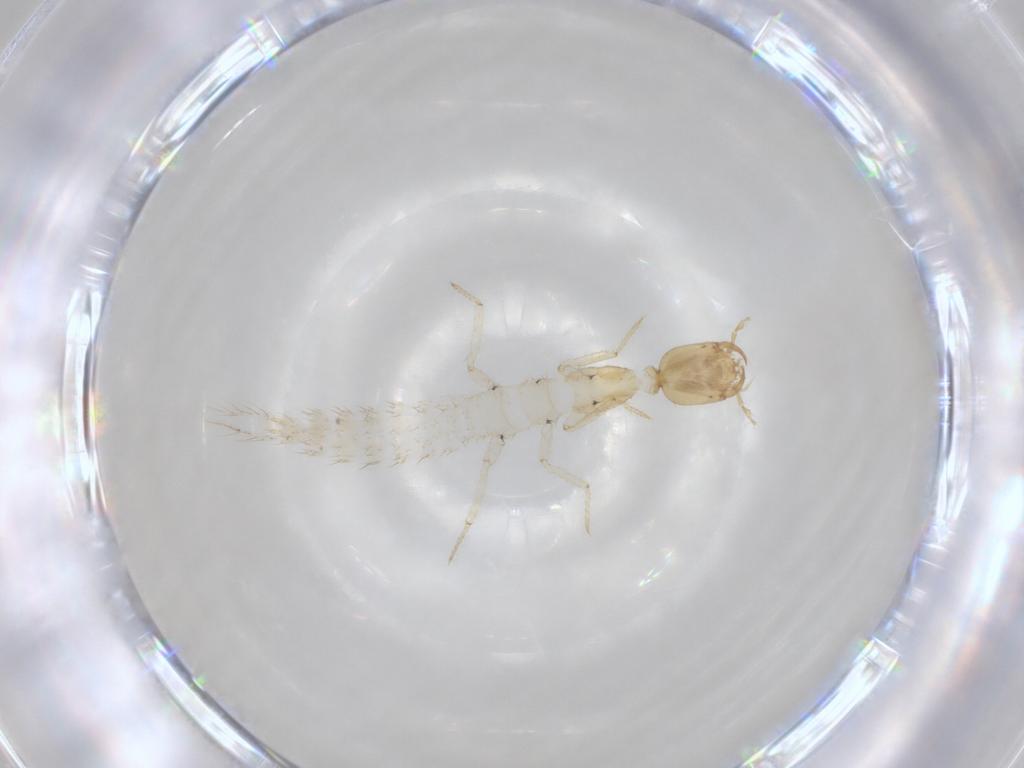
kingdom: Animalia
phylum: Arthropoda
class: Insecta
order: Coleoptera
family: Staphylinidae
